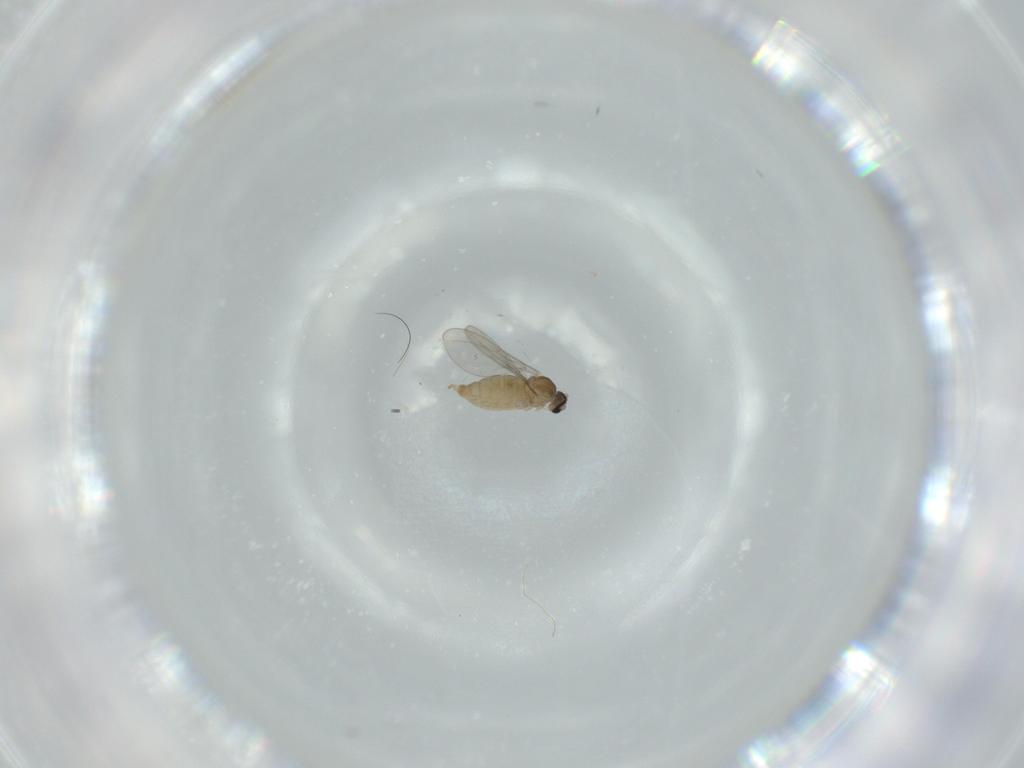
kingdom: Animalia
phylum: Arthropoda
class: Insecta
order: Diptera
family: Cecidomyiidae
